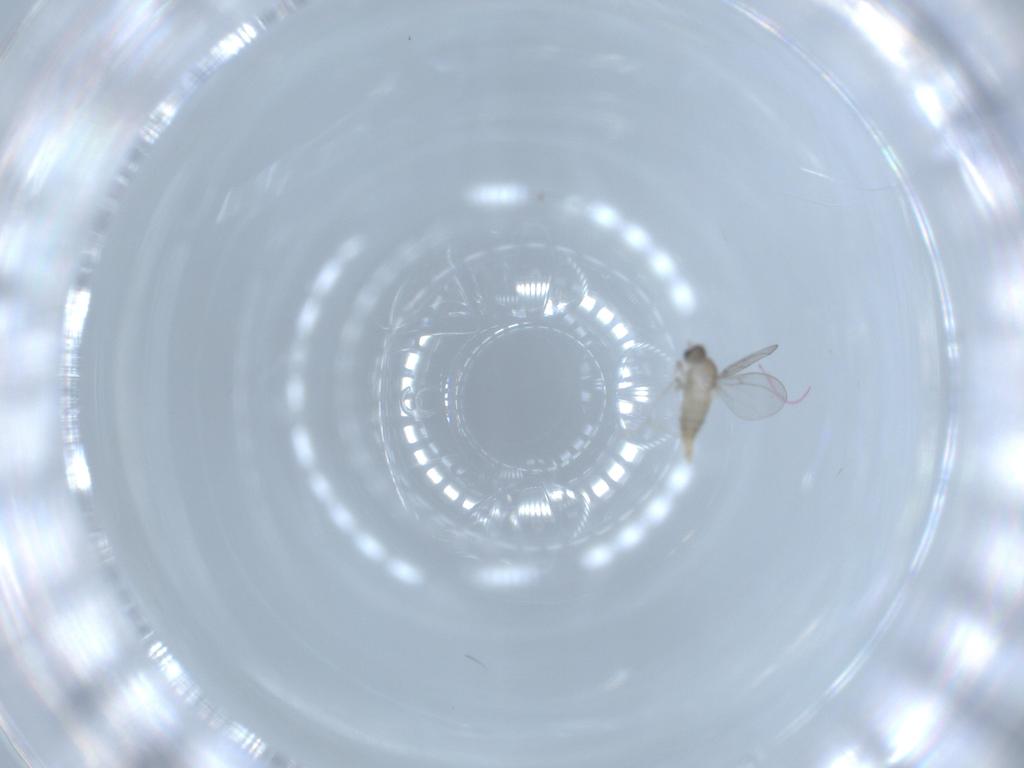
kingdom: Animalia
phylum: Arthropoda
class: Insecta
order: Diptera
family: Cecidomyiidae
